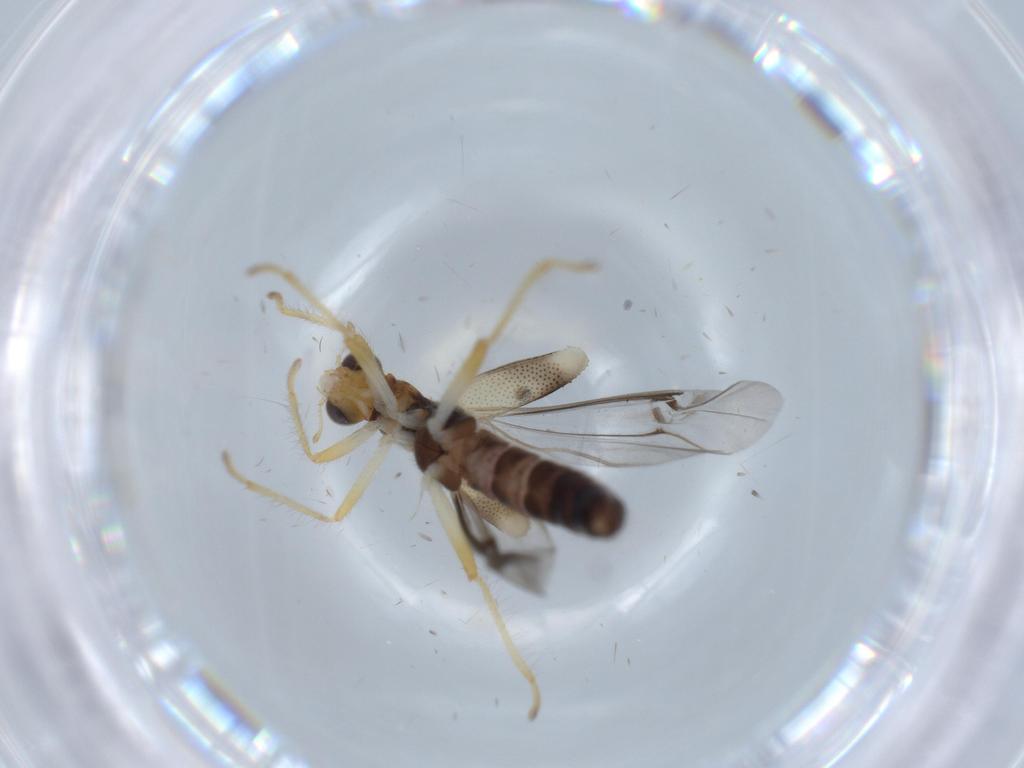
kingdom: Animalia
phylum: Arthropoda
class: Insecta
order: Coleoptera
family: Cleridae
